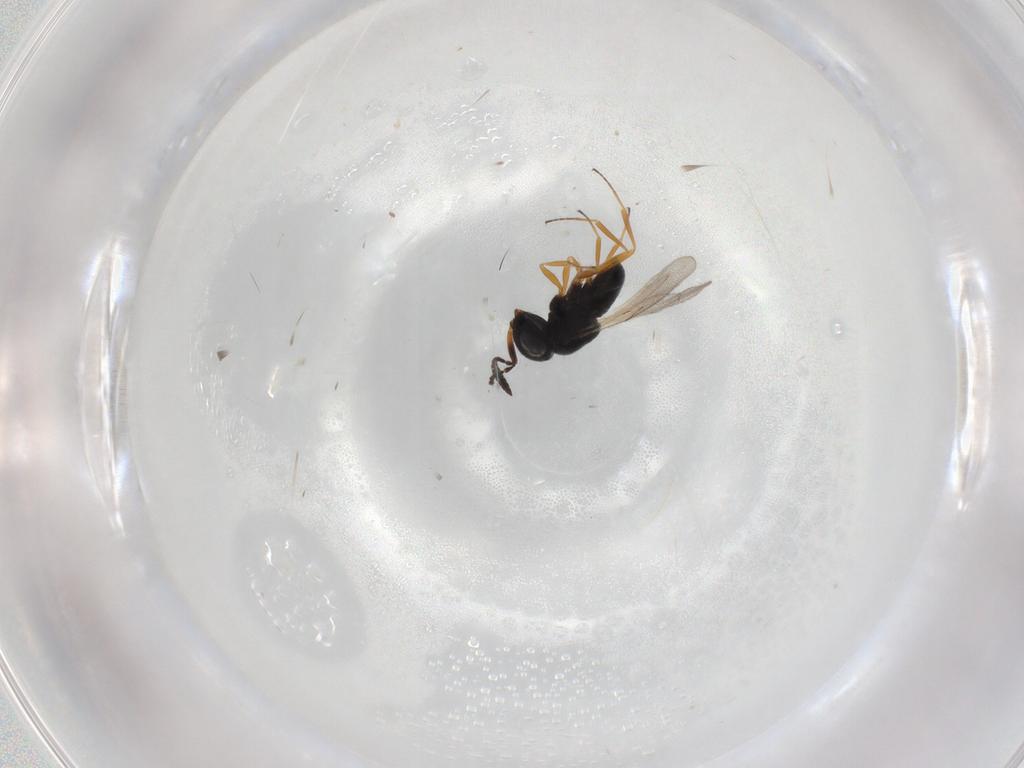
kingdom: Animalia
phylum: Arthropoda
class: Insecta
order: Hymenoptera
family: Scelionidae
